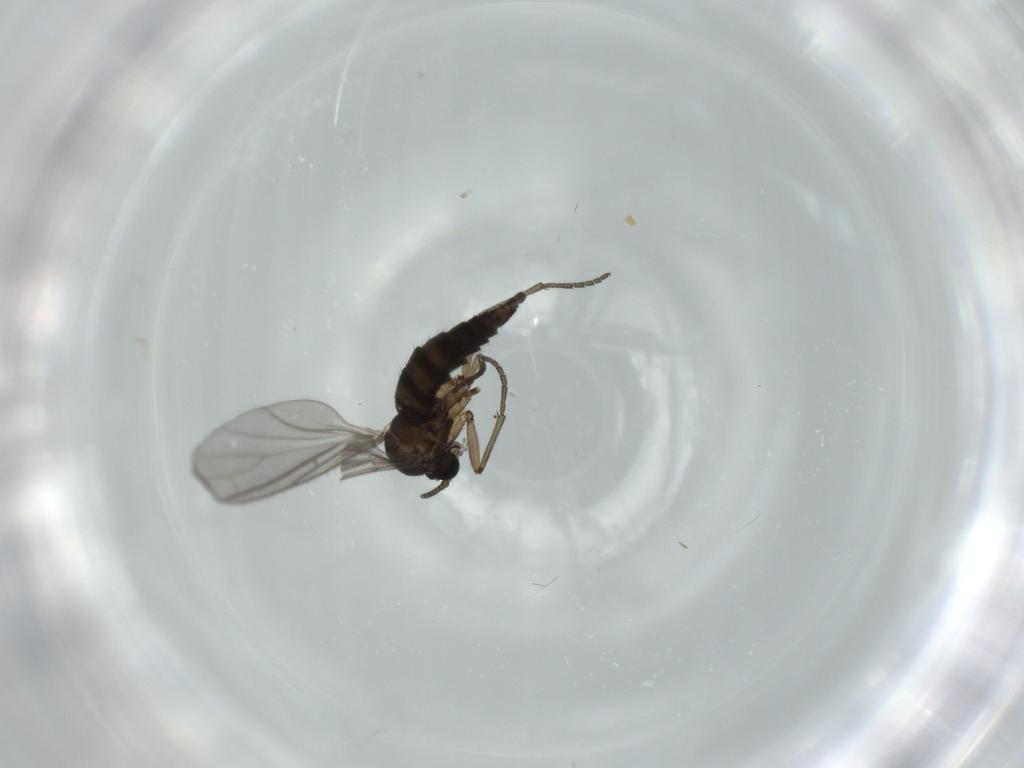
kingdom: Animalia
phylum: Arthropoda
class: Insecta
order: Diptera
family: Sciaridae
